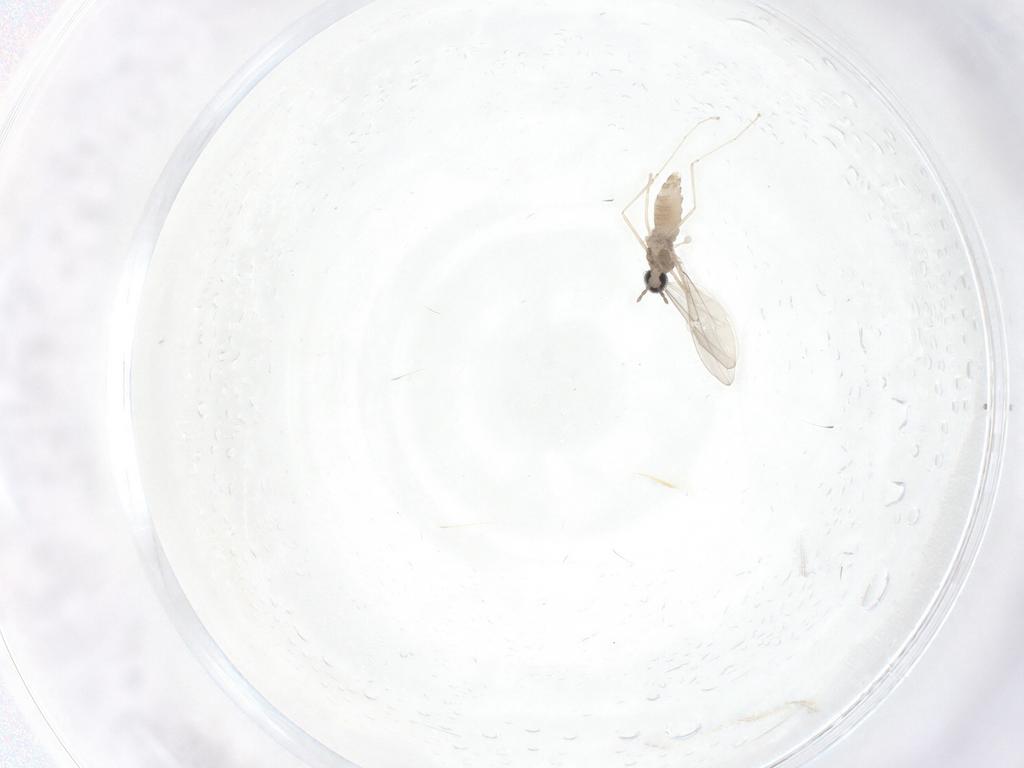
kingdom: Animalia
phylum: Arthropoda
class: Insecta
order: Diptera
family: Cecidomyiidae
